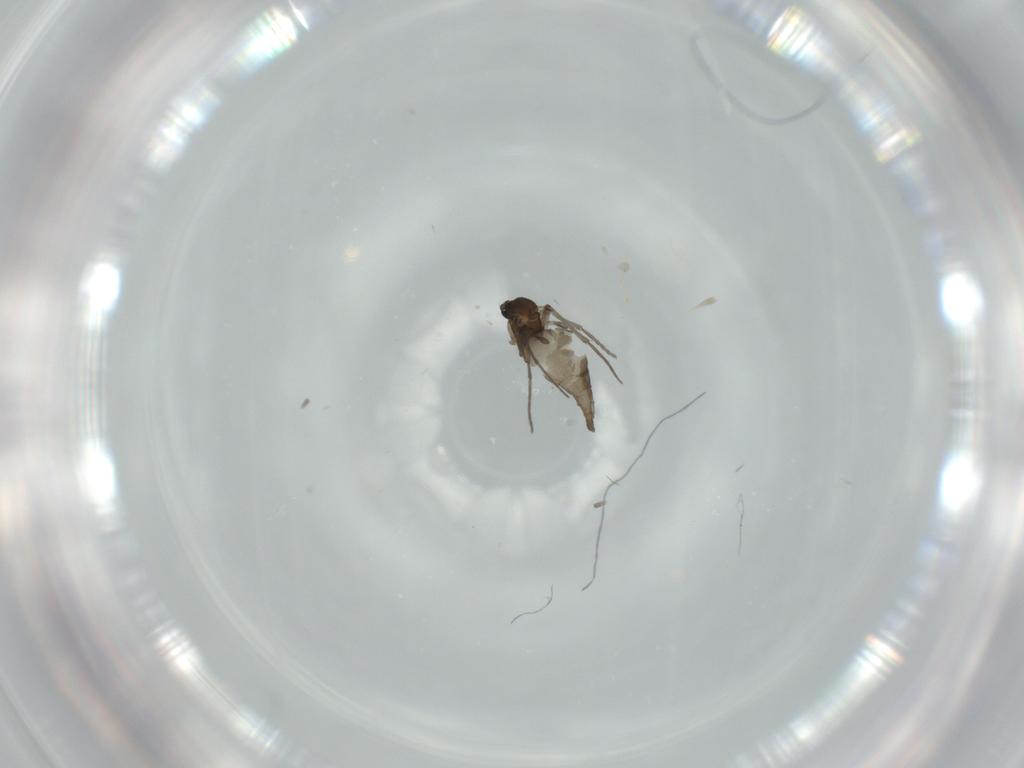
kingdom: Animalia
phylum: Arthropoda
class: Insecta
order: Diptera
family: Sciaridae
